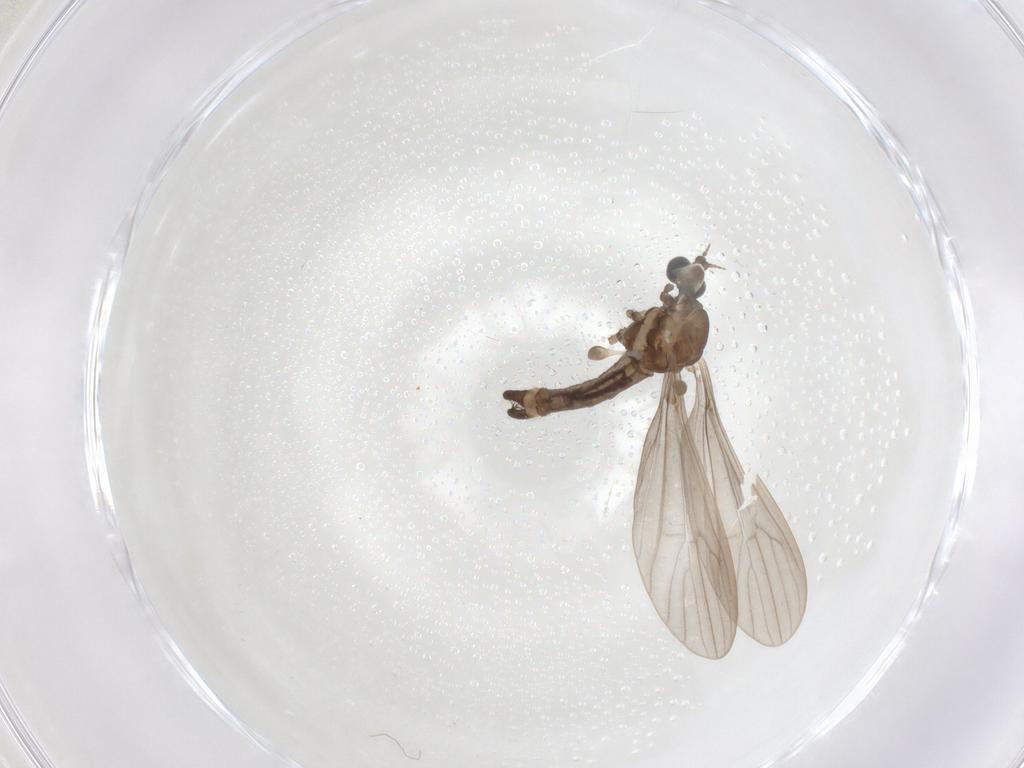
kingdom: Animalia
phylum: Arthropoda
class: Insecta
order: Diptera
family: Limoniidae
